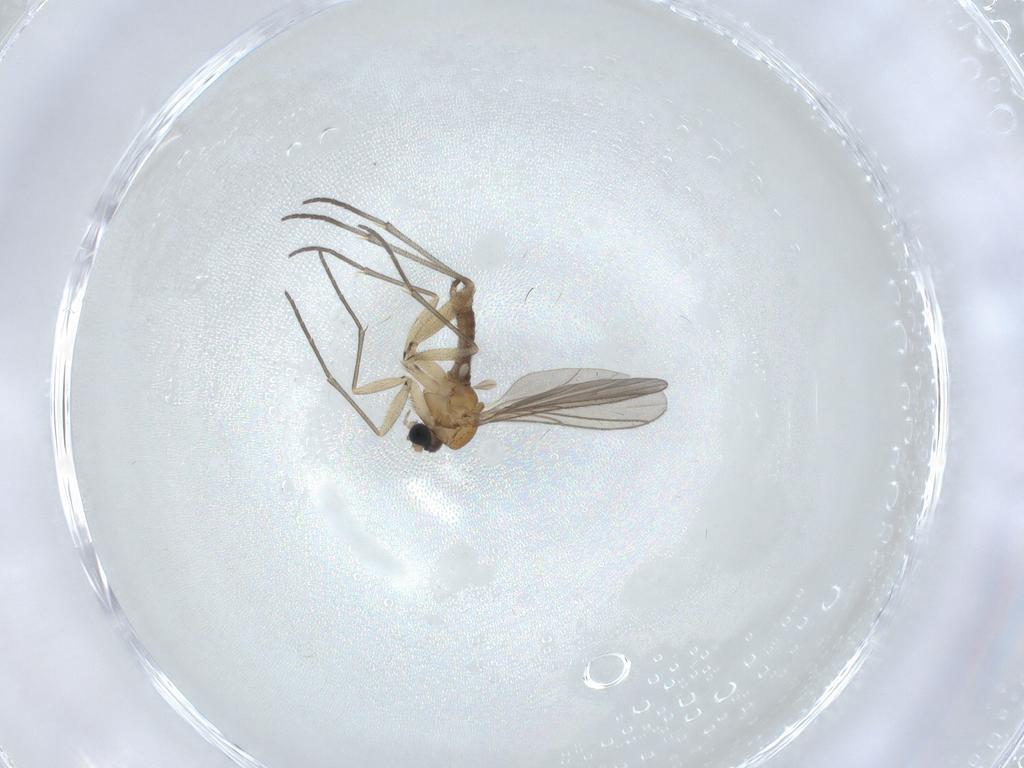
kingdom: Animalia
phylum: Arthropoda
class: Insecta
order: Diptera
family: Sciaridae
